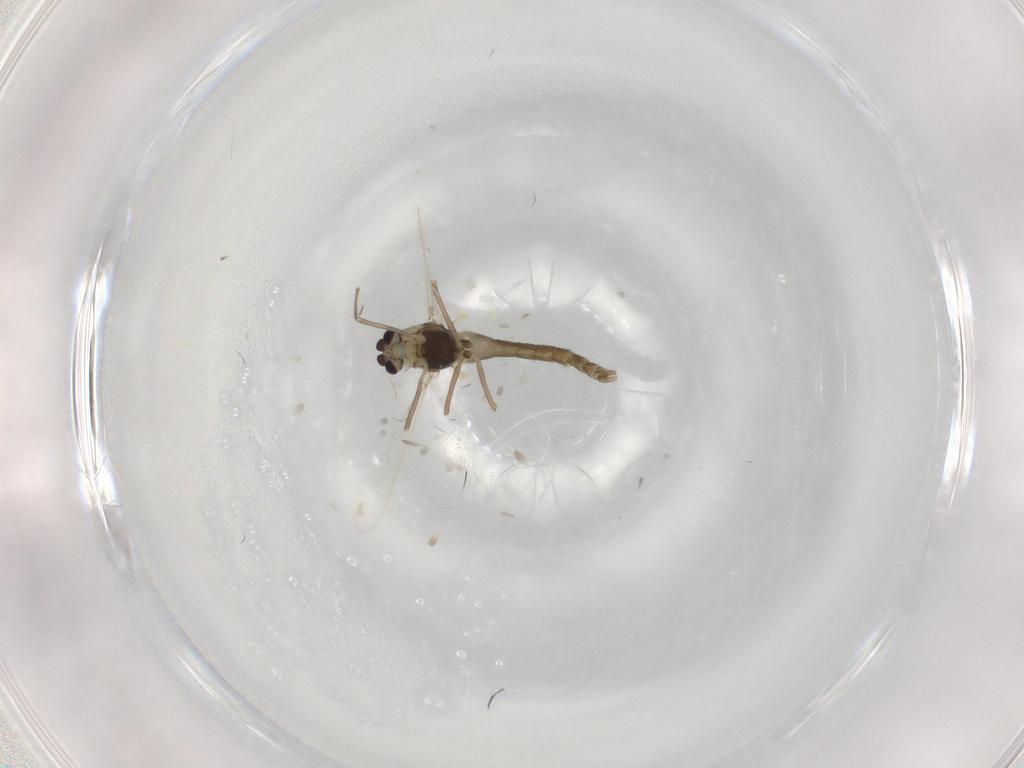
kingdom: Animalia
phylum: Arthropoda
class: Insecta
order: Diptera
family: Chironomidae
